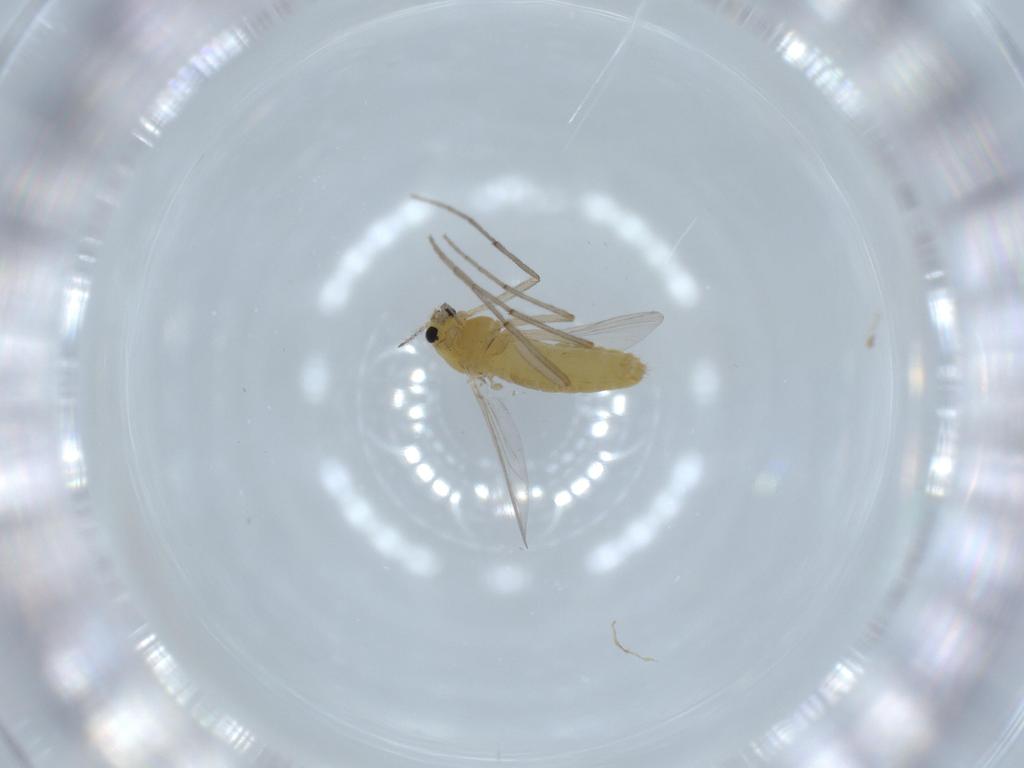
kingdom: Animalia
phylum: Arthropoda
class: Insecta
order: Diptera
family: Chironomidae
